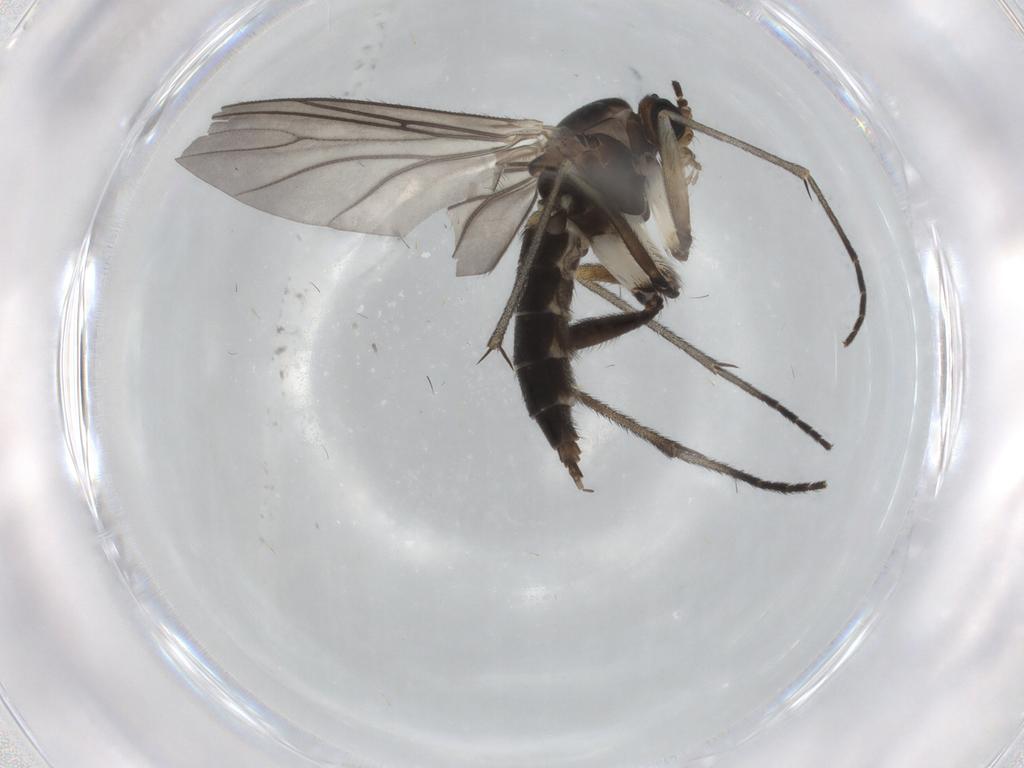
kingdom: Animalia
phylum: Arthropoda
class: Insecta
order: Diptera
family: Sciaridae
